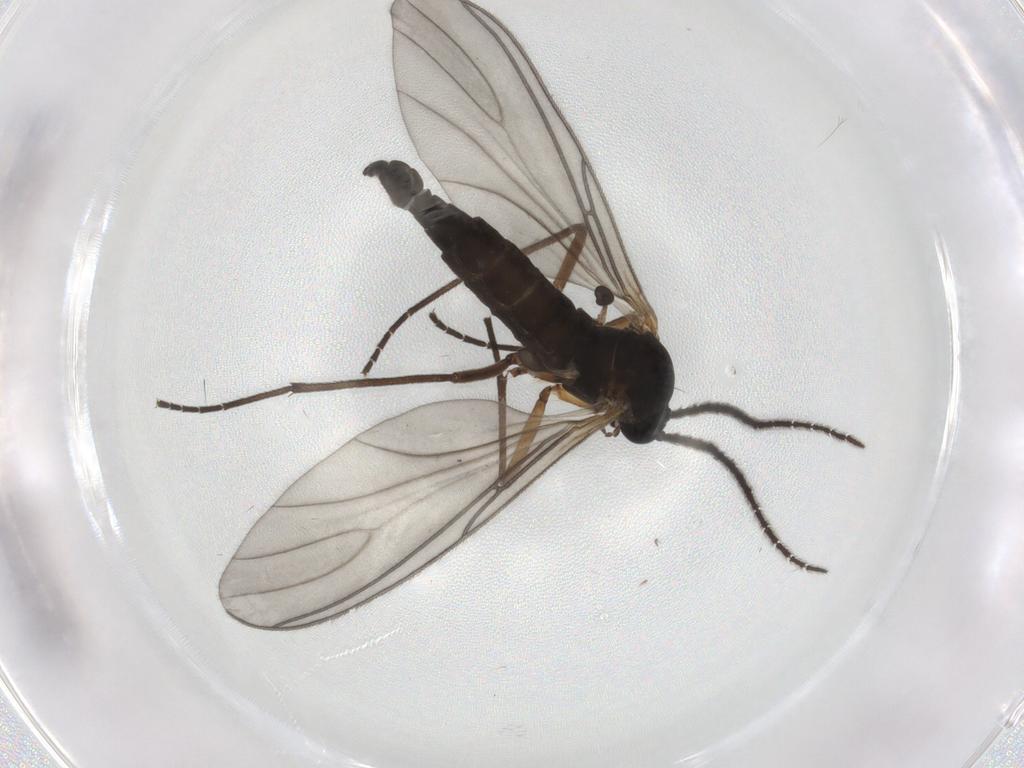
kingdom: Animalia
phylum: Arthropoda
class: Insecta
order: Diptera
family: Sciaridae
